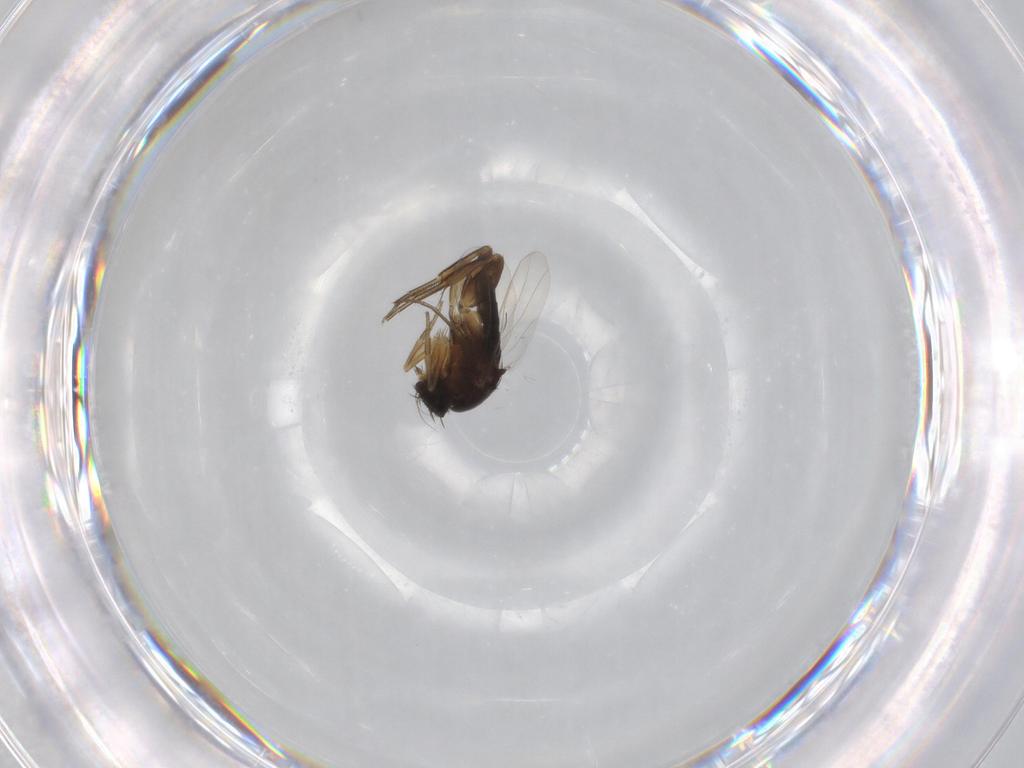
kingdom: Animalia
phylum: Arthropoda
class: Insecta
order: Diptera
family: Phoridae
